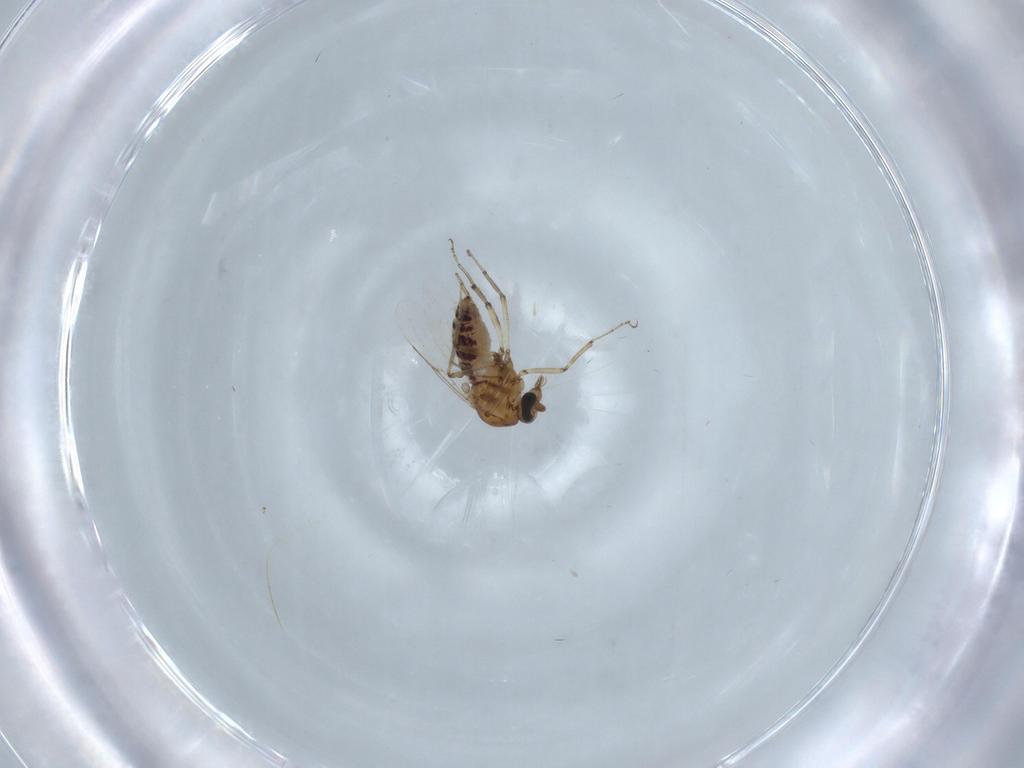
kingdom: Animalia
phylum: Arthropoda
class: Insecta
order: Diptera
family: Ceratopogonidae
